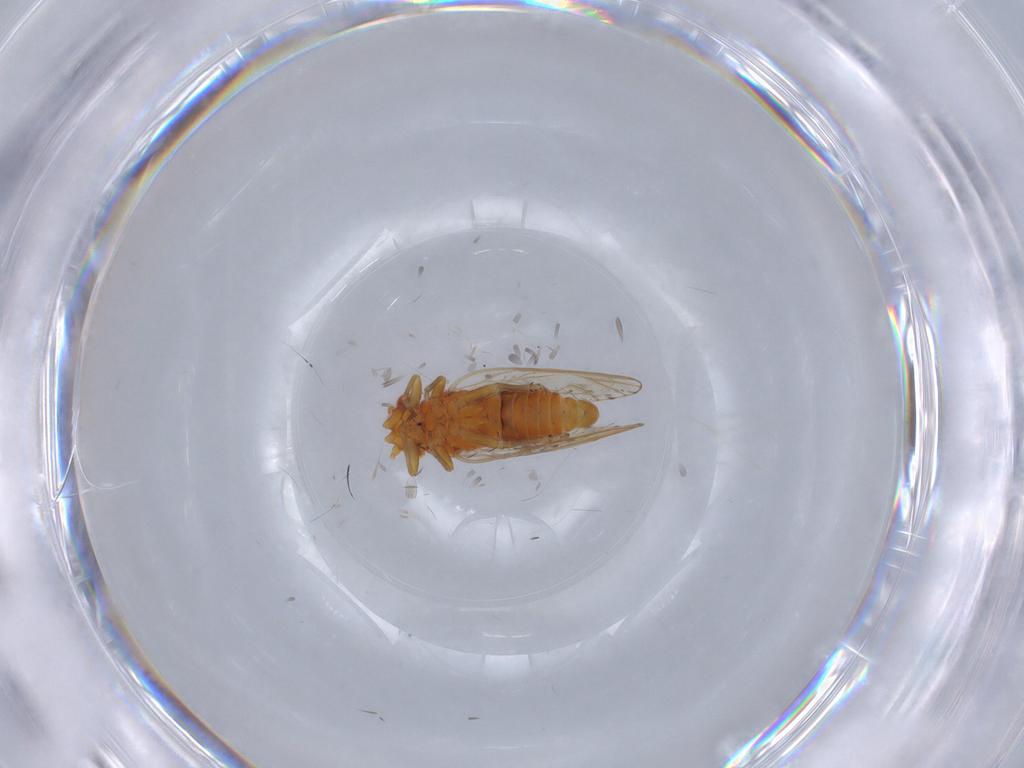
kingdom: Animalia
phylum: Arthropoda
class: Insecta
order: Hemiptera
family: Psylloidea_incertae_sedis
